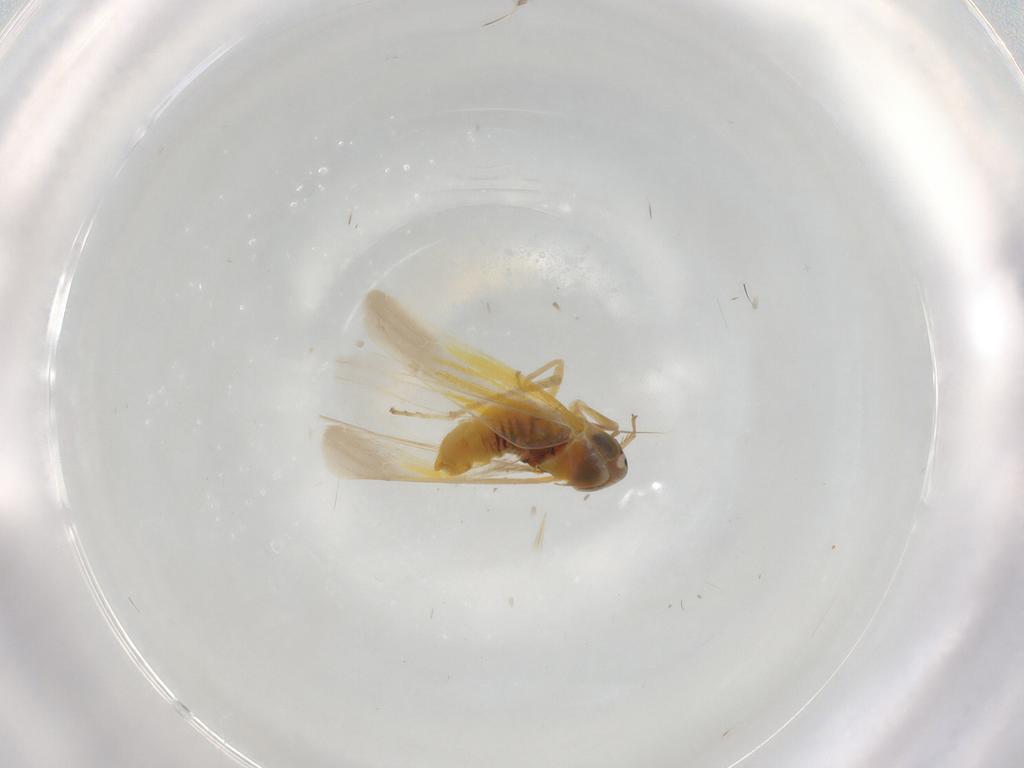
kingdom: Animalia
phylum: Arthropoda
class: Insecta
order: Hemiptera
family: Cicadellidae
